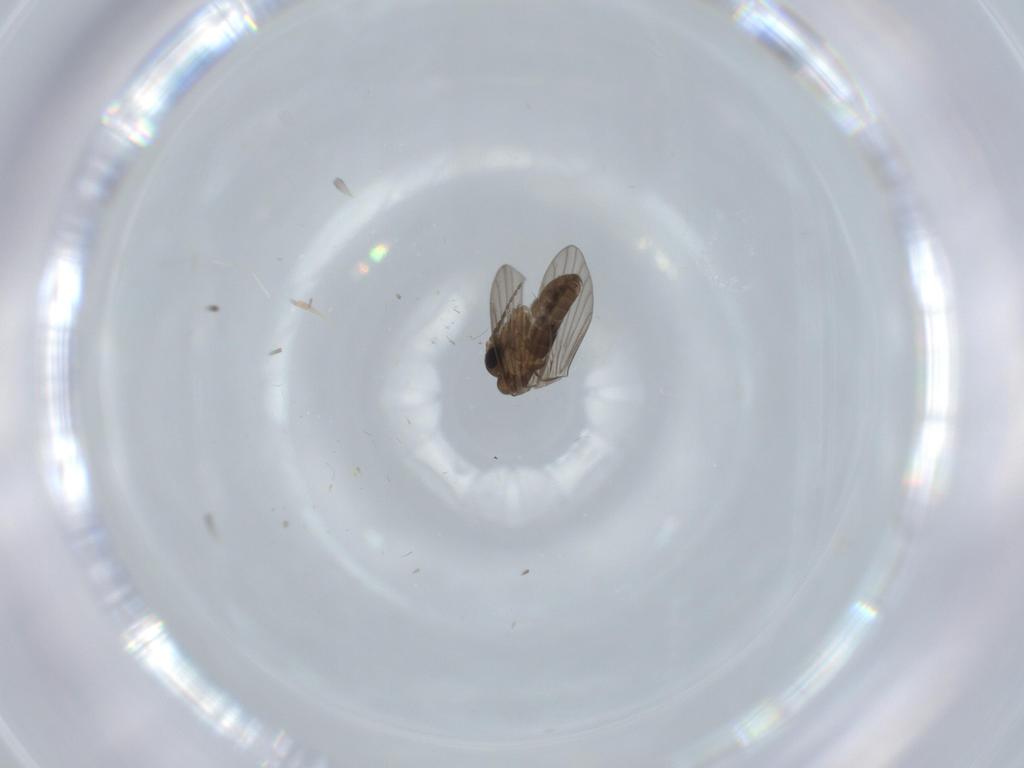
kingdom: Animalia
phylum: Arthropoda
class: Insecta
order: Diptera
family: Psychodidae
